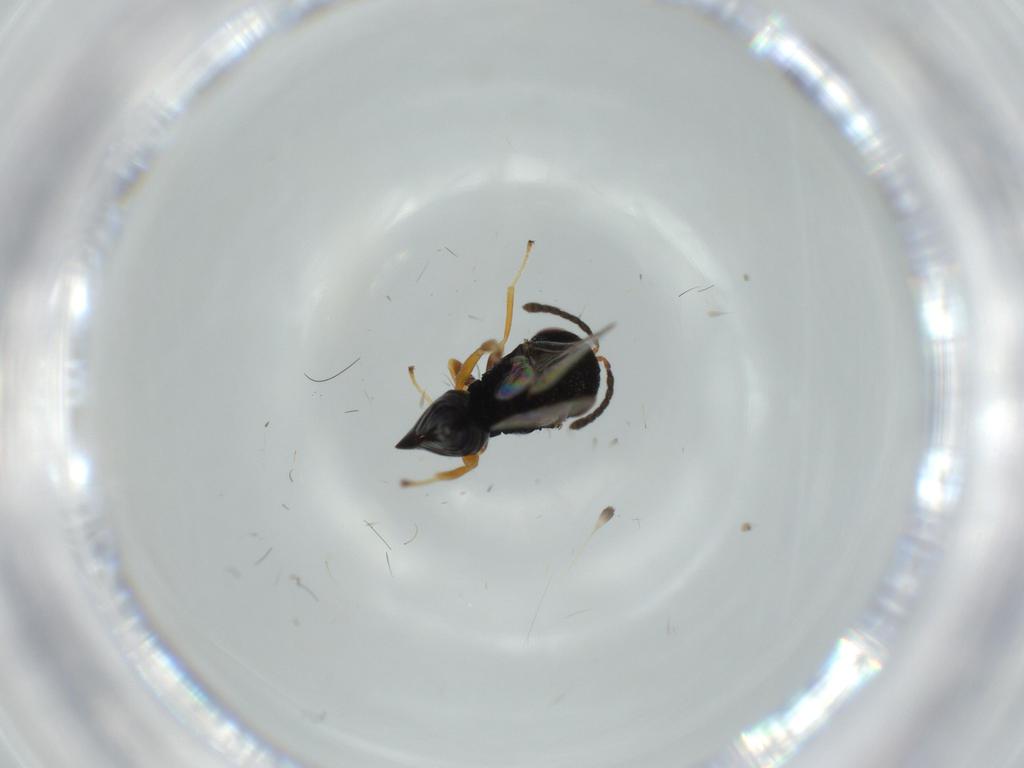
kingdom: Animalia
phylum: Arthropoda
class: Insecta
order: Hymenoptera
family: Pteromalidae
